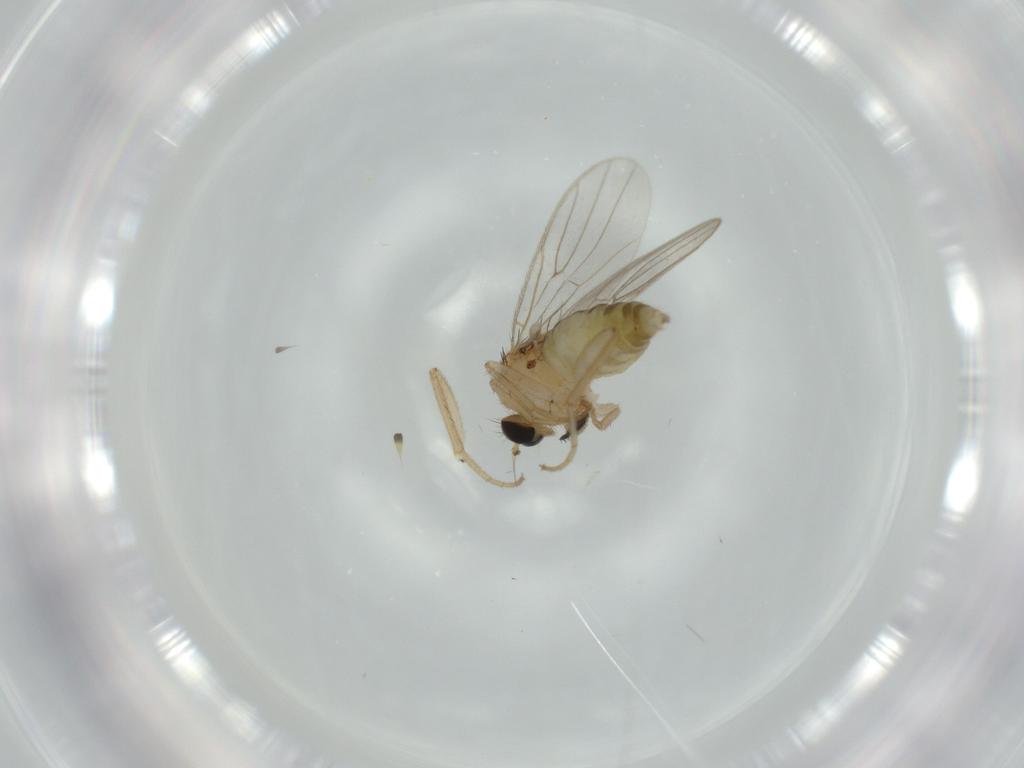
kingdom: Animalia
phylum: Arthropoda
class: Insecta
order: Diptera
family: Hybotidae
